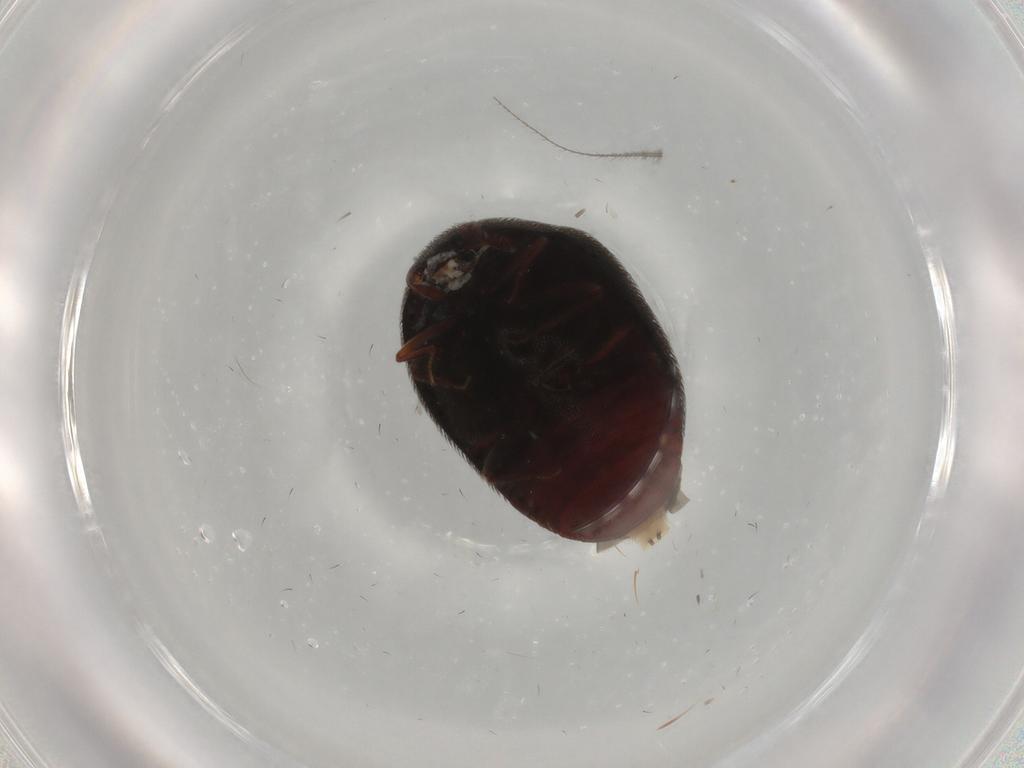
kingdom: Animalia
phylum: Arthropoda
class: Insecta
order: Coleoptera
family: Dermestidae
